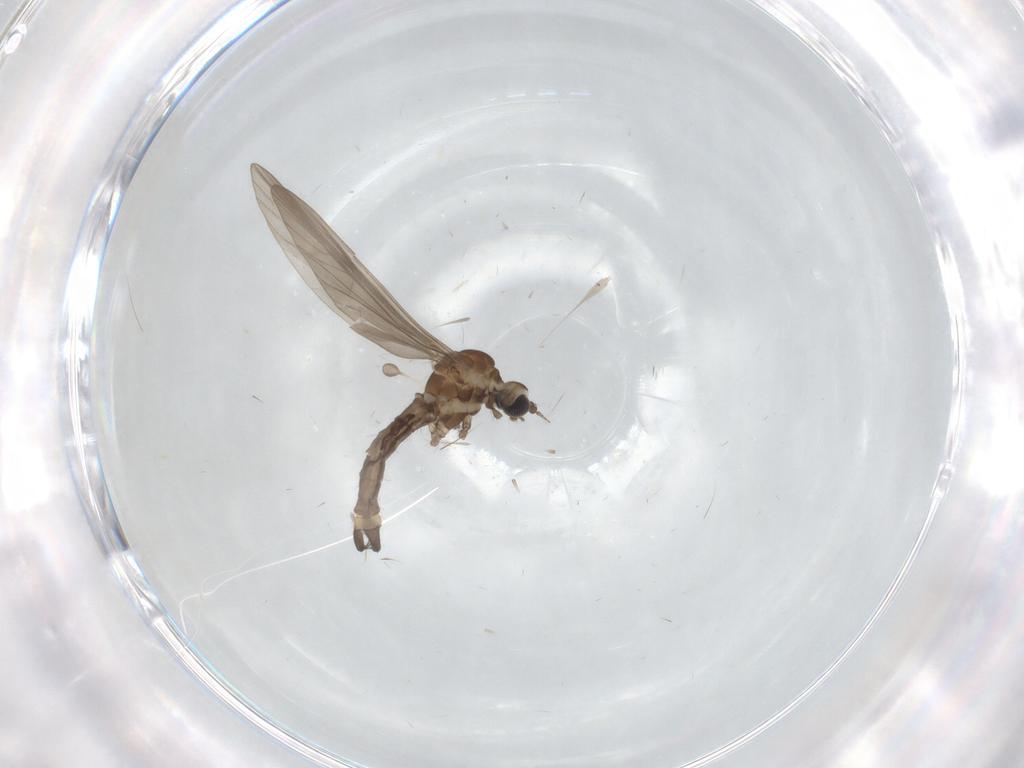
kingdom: Animalia
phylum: Arthropoda
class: Insecta
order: Diptera
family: Limoniidae
